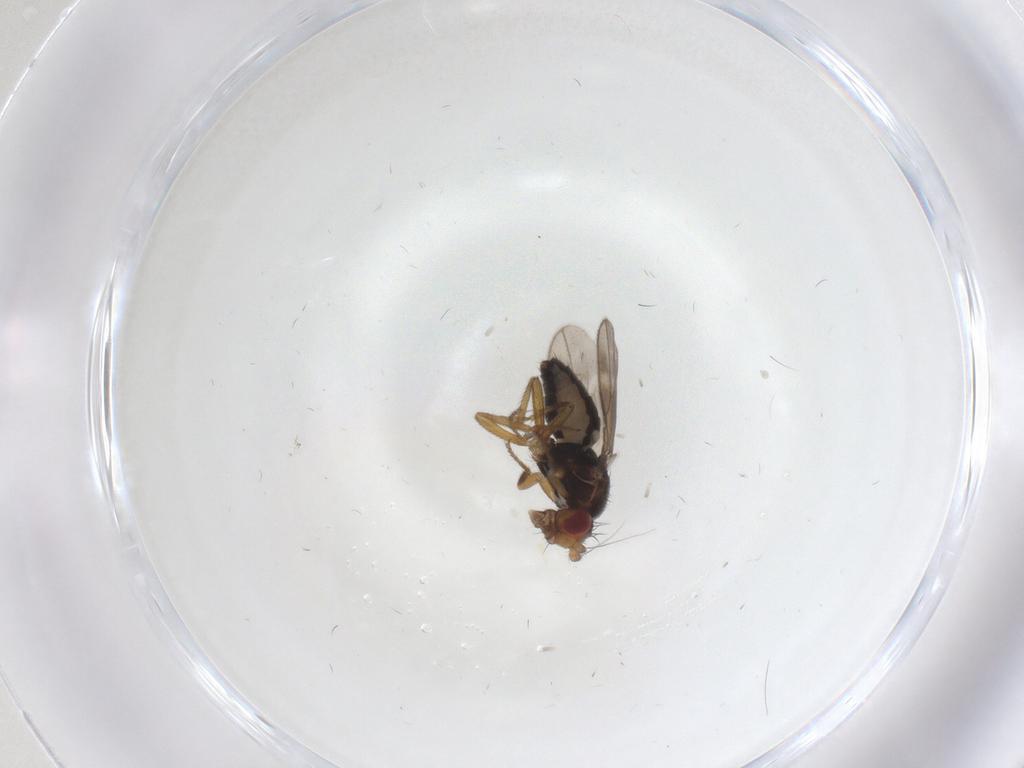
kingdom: Animalia
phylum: Arthropoda
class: Insecta
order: Diptera
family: Sphaeroceridae
